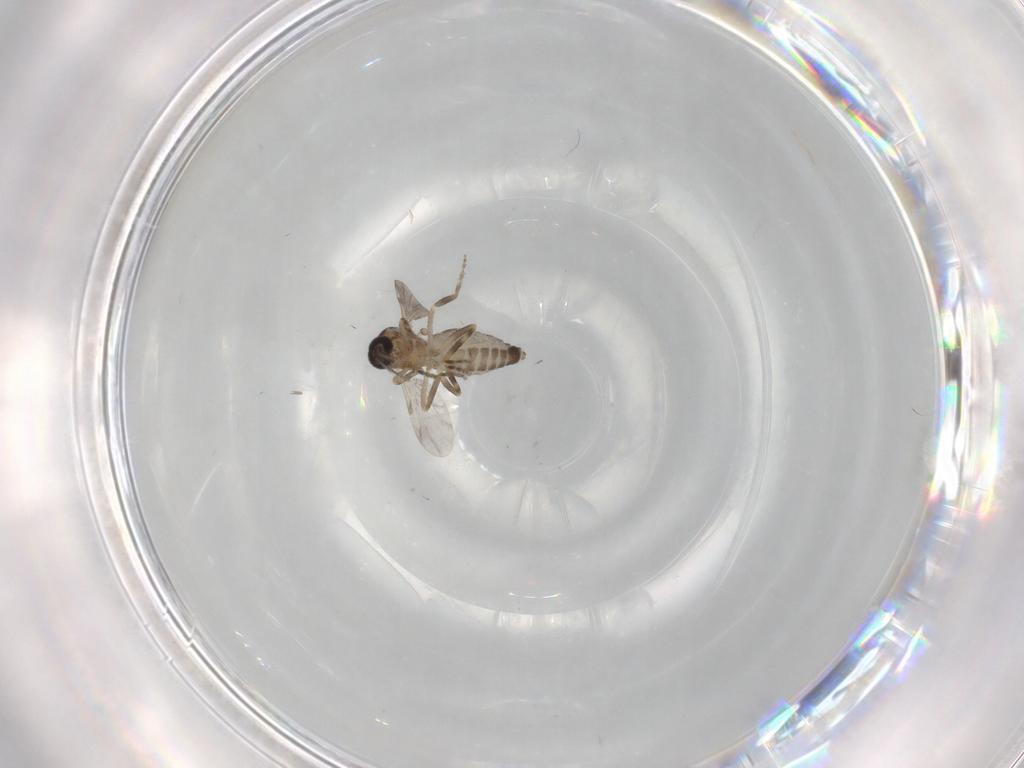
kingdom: Animalia
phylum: Arthropoda
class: Insecta
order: Diptera
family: Ceratopogonidae
